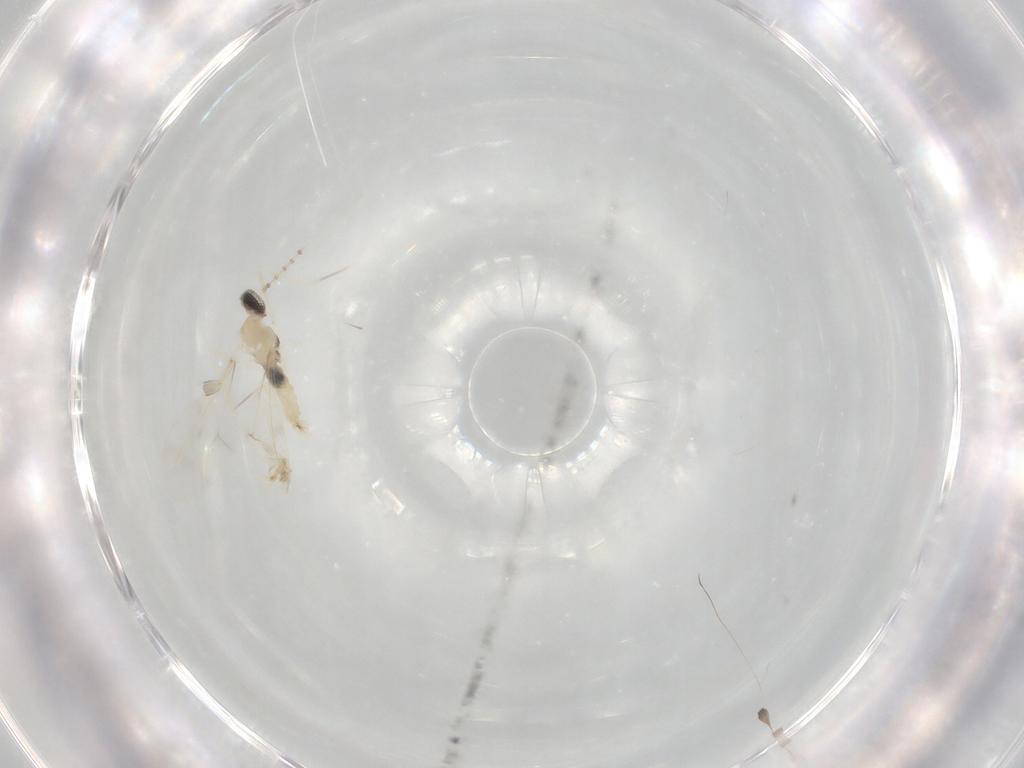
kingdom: Animalia
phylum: Arthropoda
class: Insecta
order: Diptera
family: Cecidomyiidae
